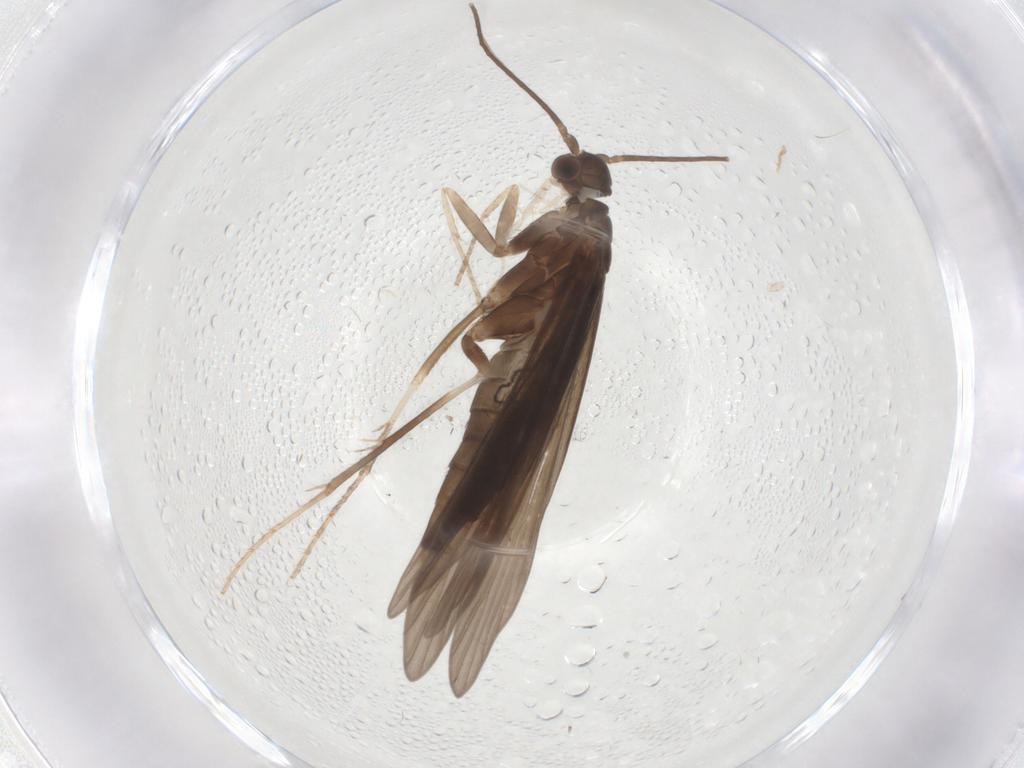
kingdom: Animalia
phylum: Arthropoda
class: Insecta
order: Trichoptera
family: Xiphocentronidae
